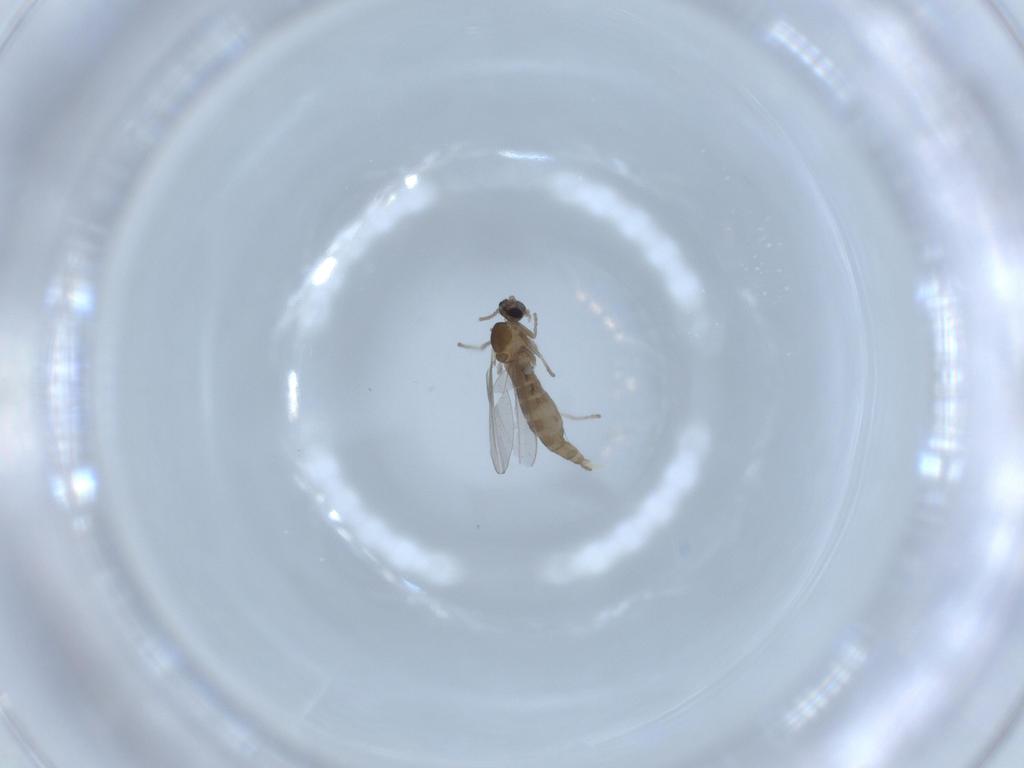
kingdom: Animalia
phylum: Arthropoda
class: Insecta
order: Diptera
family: Cecidomyiidae
